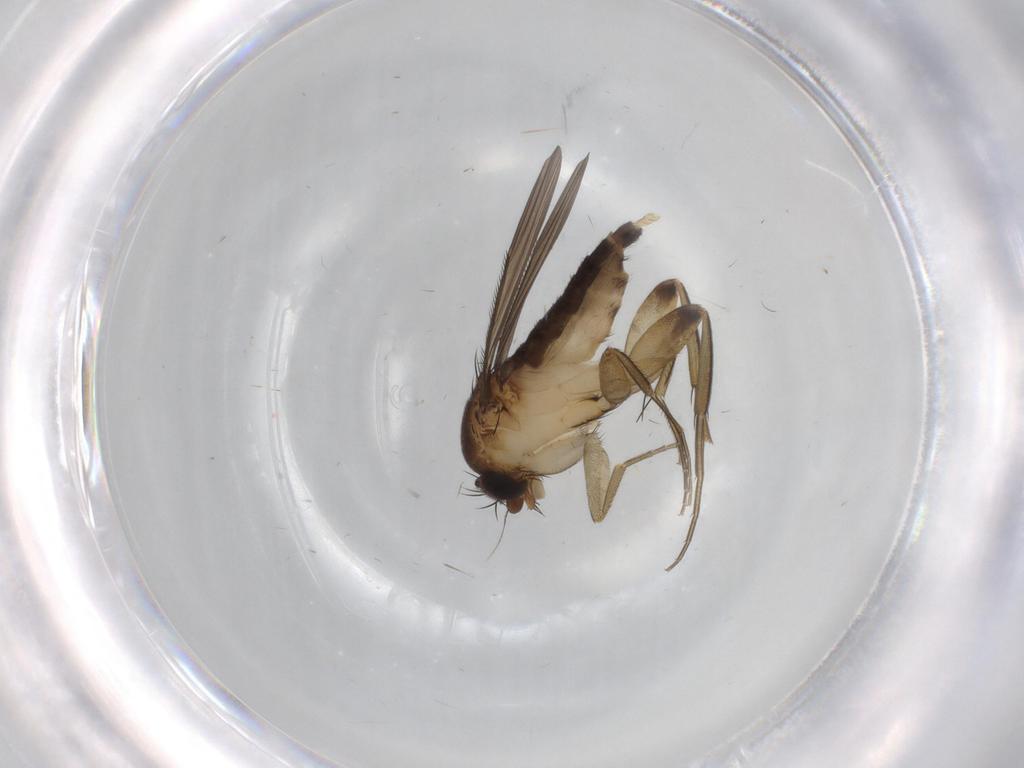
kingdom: Animalia
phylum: Arthropoda
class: Insecta
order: Diptera
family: Phoridae
